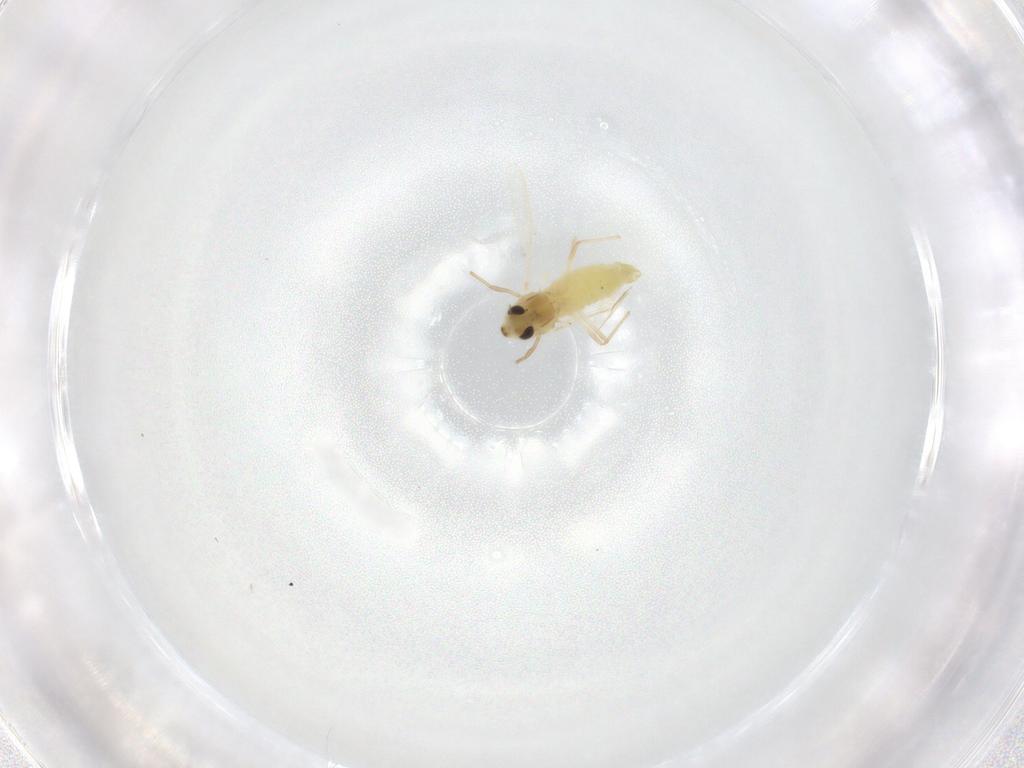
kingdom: Animalia
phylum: Arthropoda
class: Insecta
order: Diptera
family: Chironomidae
